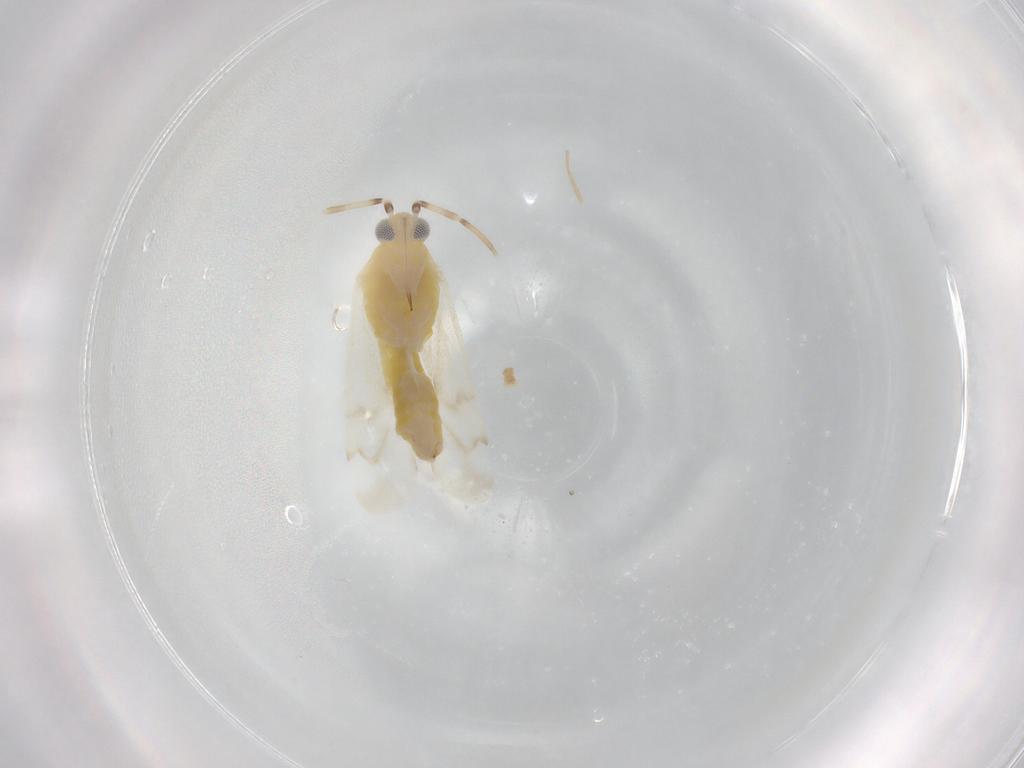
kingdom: Animalia
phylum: Arthropoda
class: Insecta
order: Hemiptera
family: Miridae
